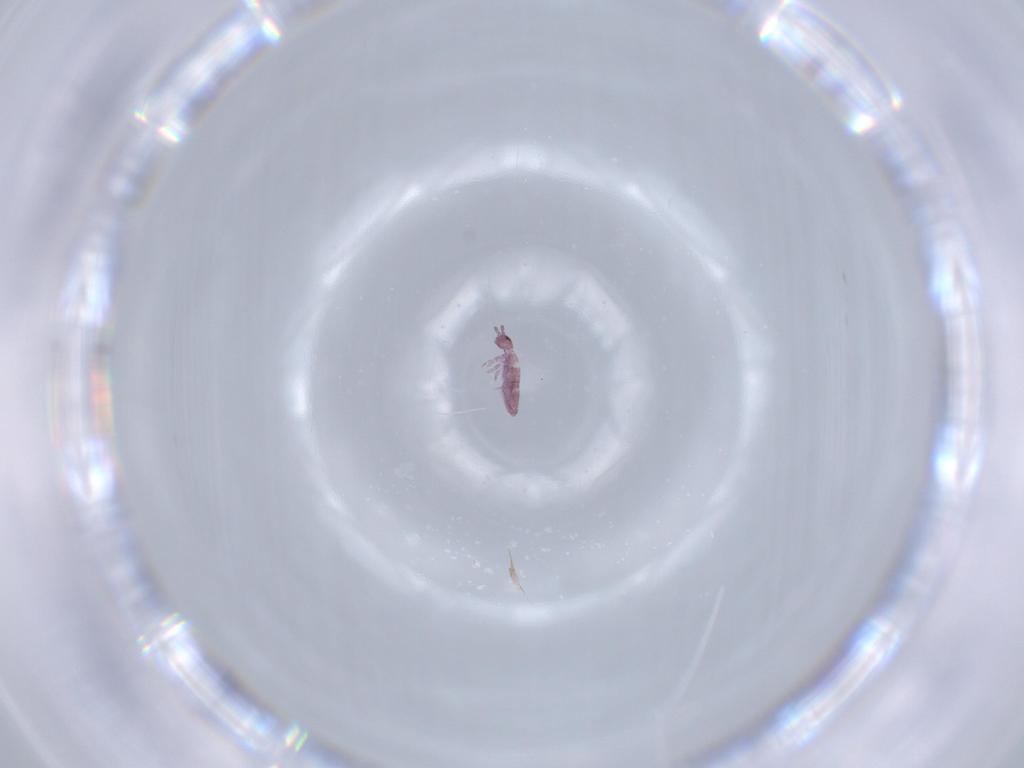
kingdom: Animalia
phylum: Arthropoda
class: Collembola
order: Entomobryomorpha
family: Entomobryidae
